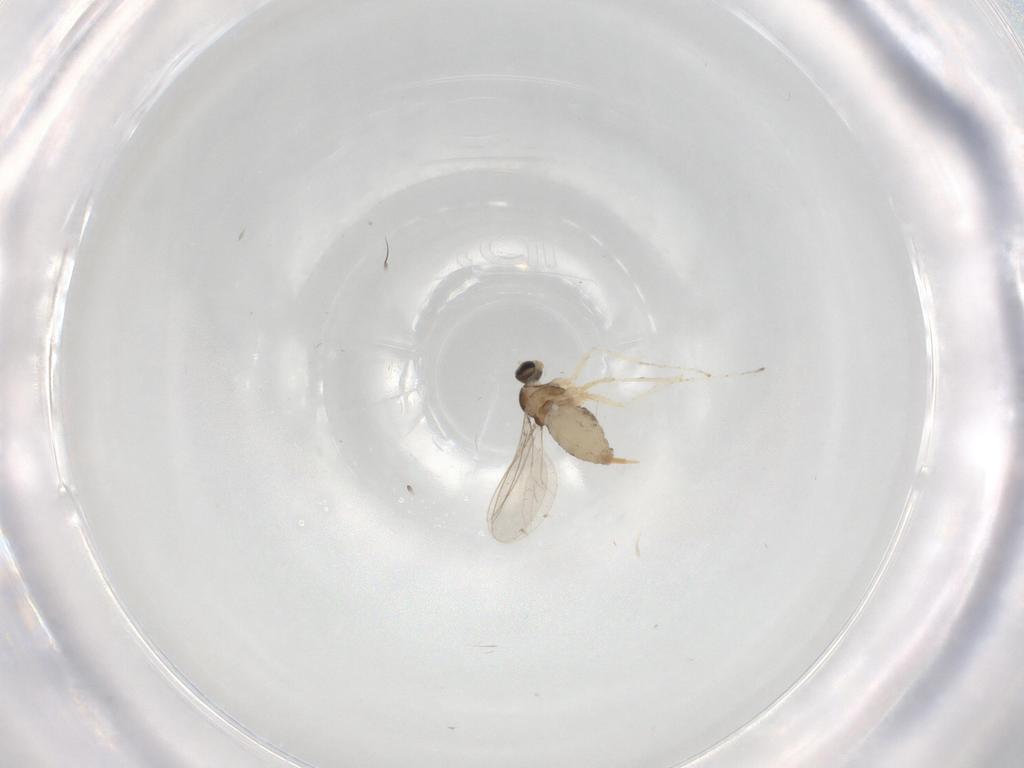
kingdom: Animalia
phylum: Arthropoda
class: Insecta
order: Diptera
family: Cecidomyiidae
